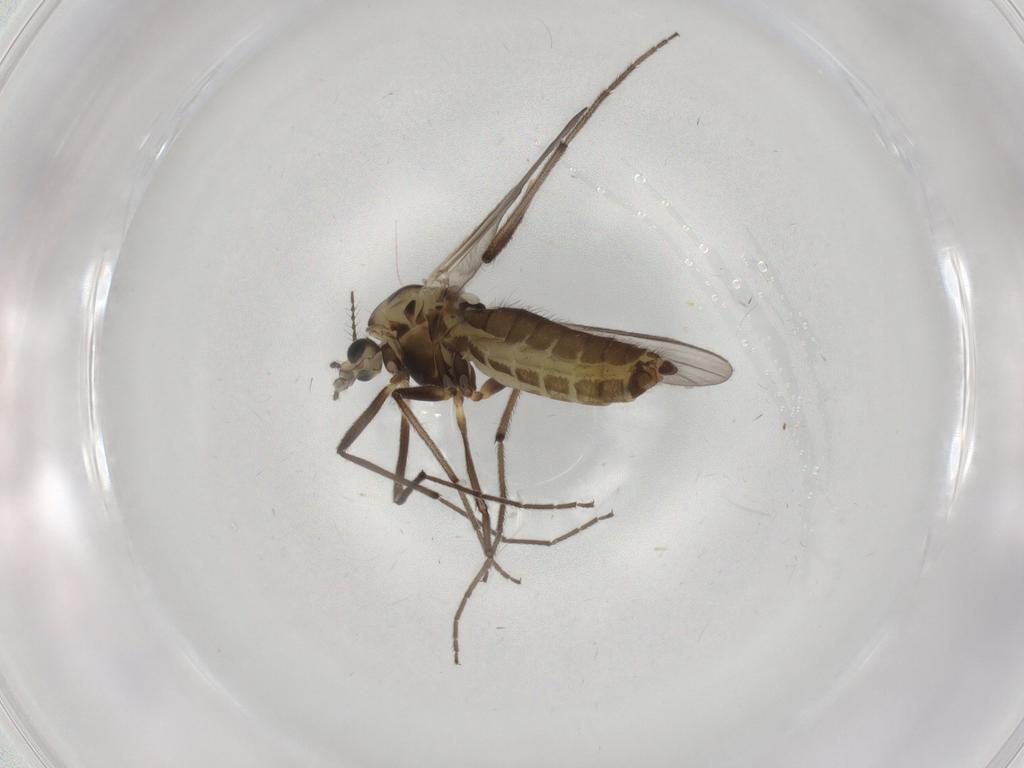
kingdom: Animalia
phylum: Arthropoda
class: Insecta
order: Diptera
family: Chironomidae
